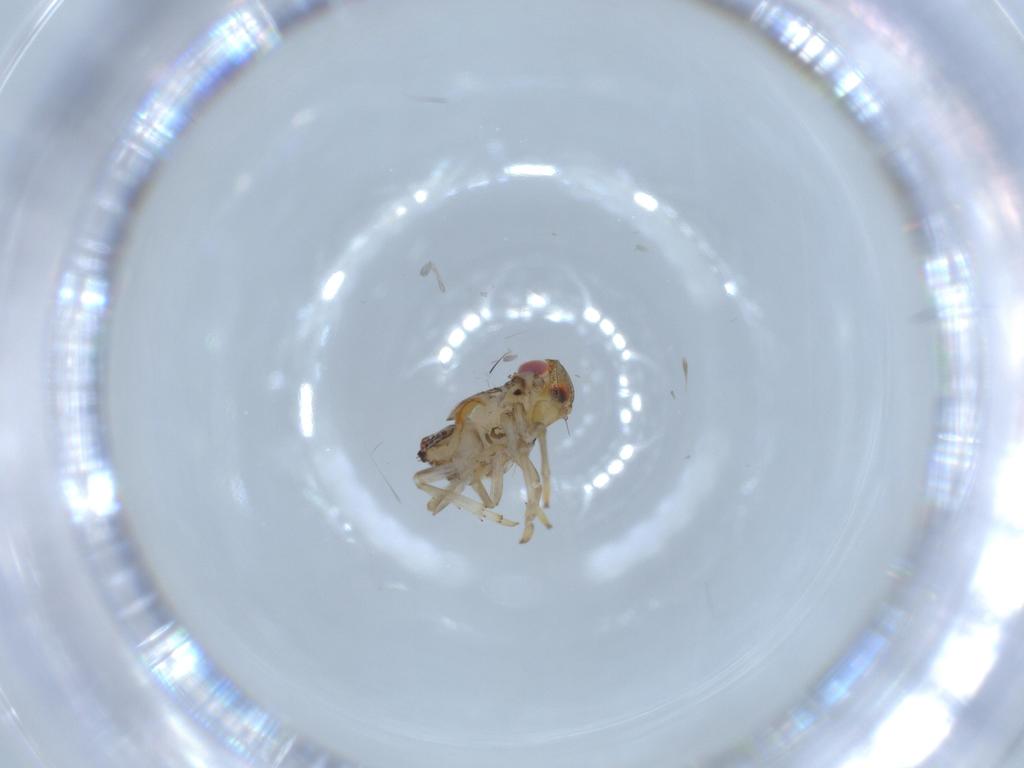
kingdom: Animalia
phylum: Arthropoda
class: Insecta
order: Hemiptera
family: Issidae
